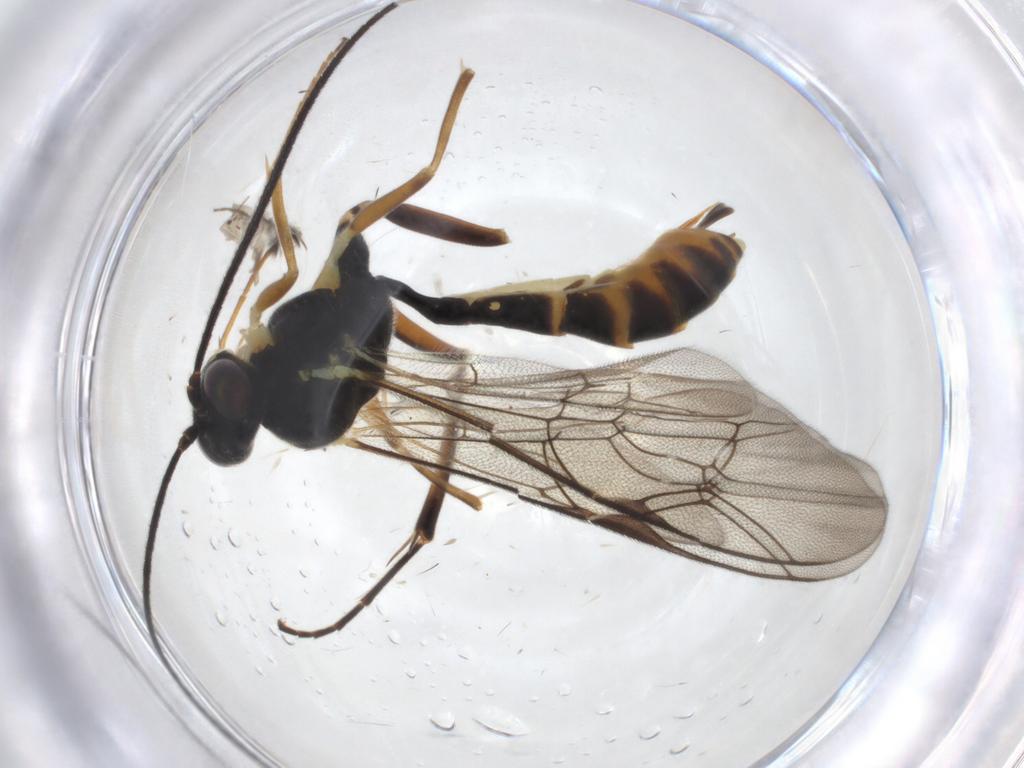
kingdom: Animalia
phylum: Arthropoda
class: Insecta
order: Hymenoptera
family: Ichneumonidae
